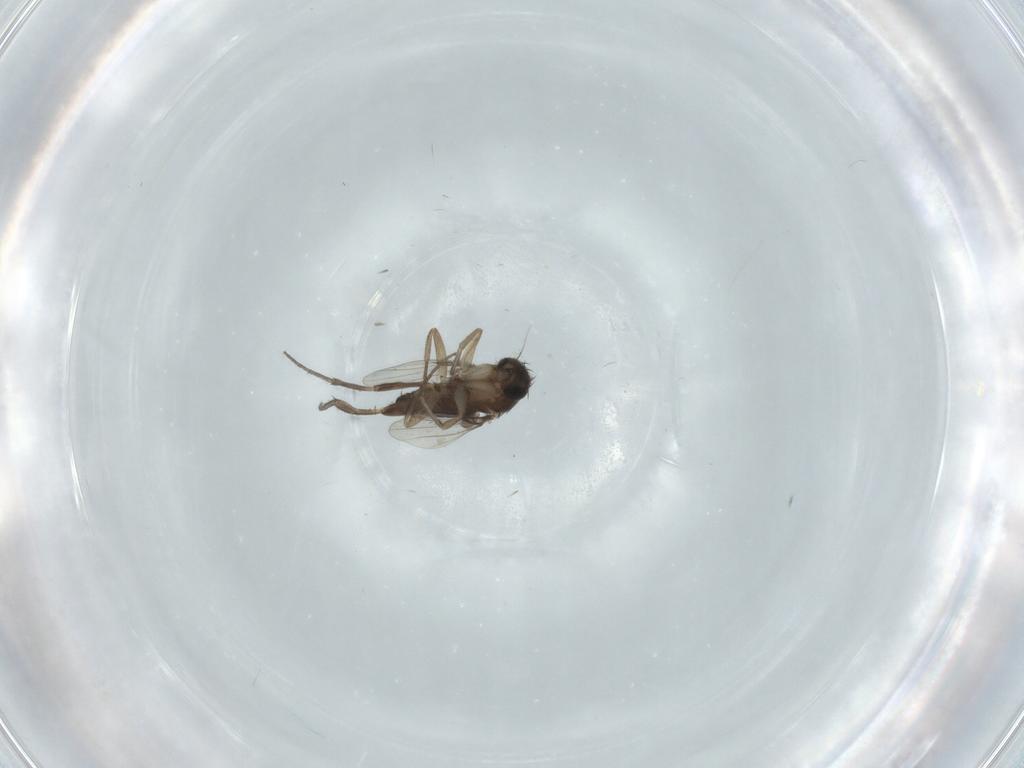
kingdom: Animalia
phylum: Arthropoda
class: Insecta
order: Diptera
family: Phoridae
